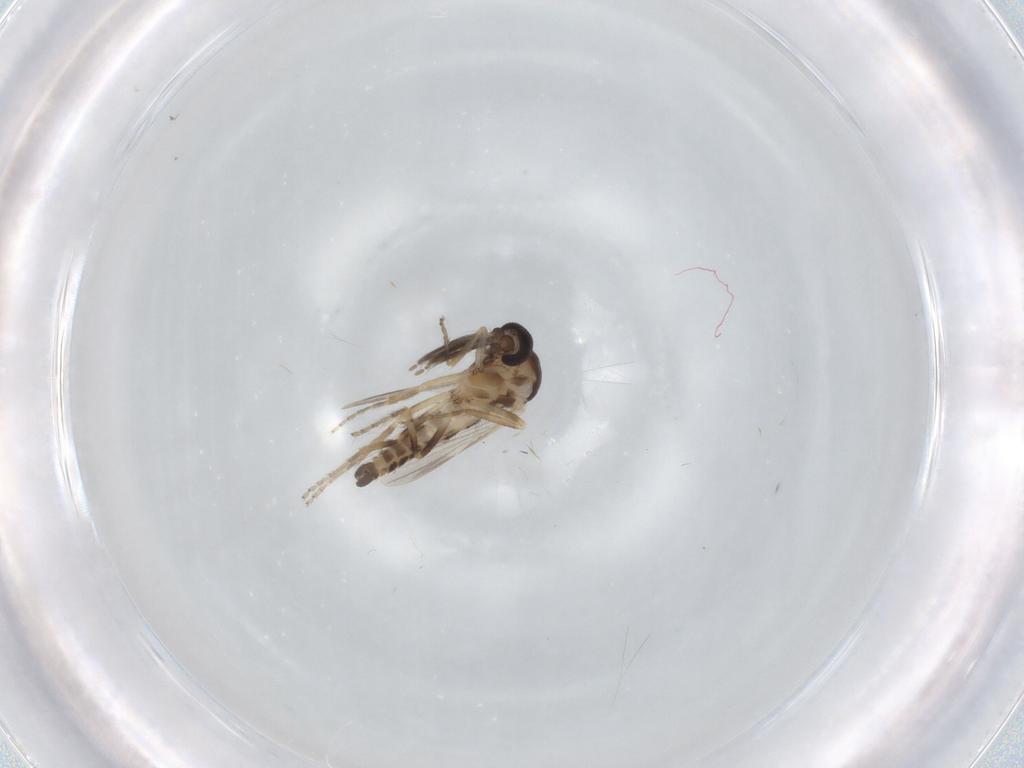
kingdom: Animalia
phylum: Arthropoda
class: Insecta
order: Diptera
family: Ceratopogonidae
